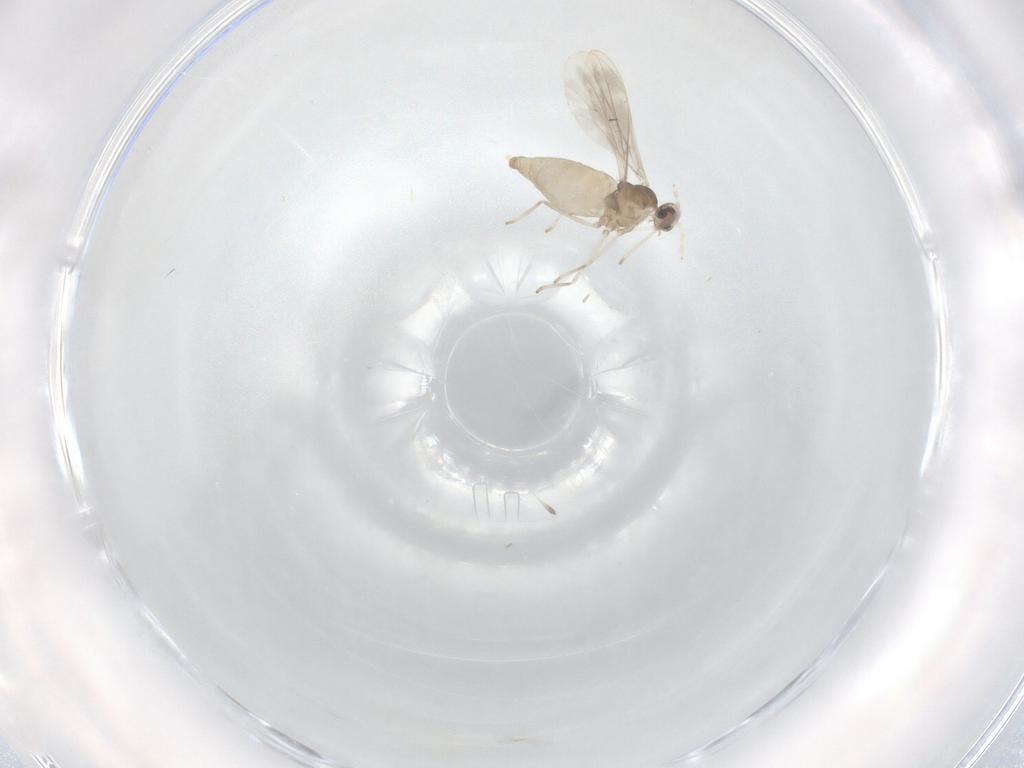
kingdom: Animalia
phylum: Arthropoda
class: Insecta
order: Diptera
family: Cecidomyiidae
